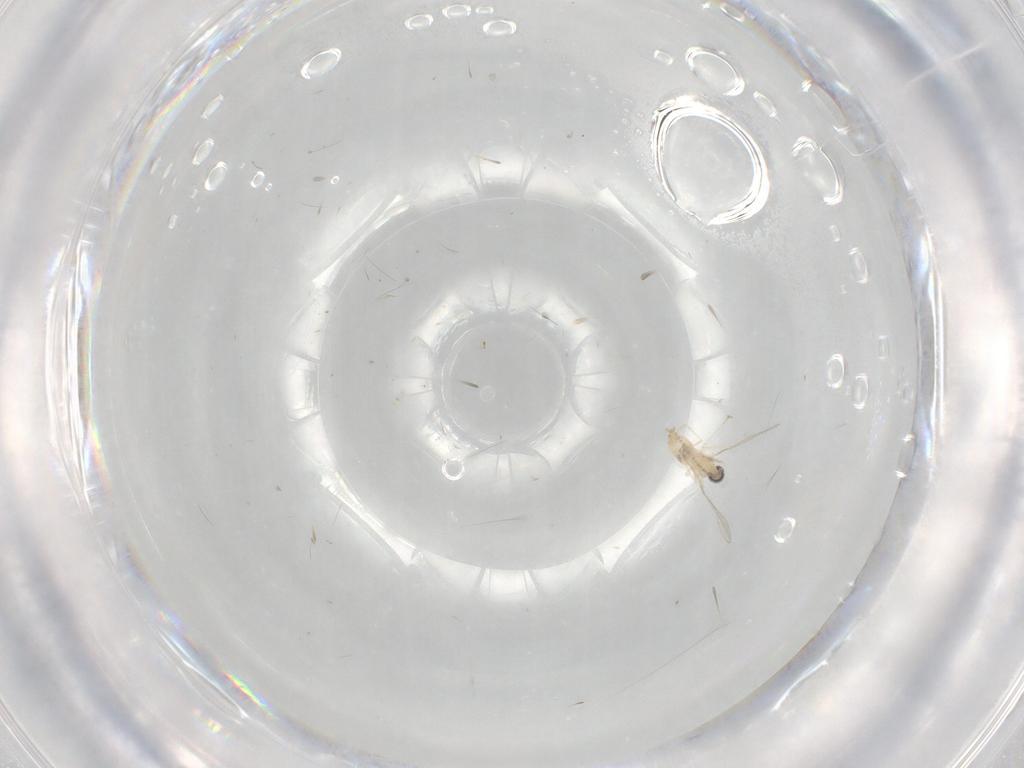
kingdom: Animalia
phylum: Arthropoda
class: Insecta
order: Diptera
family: Cecidomyiidae
